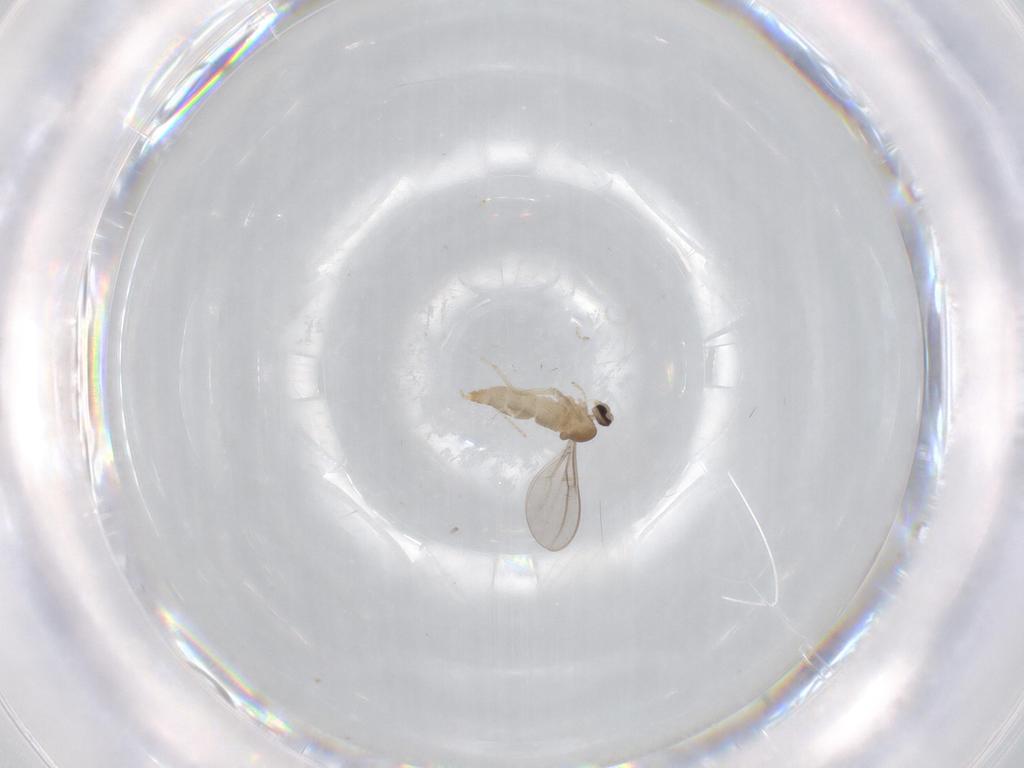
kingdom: Animalia
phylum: Arthropoda
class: Insecta
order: Diptera
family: Cecidomyiidae
